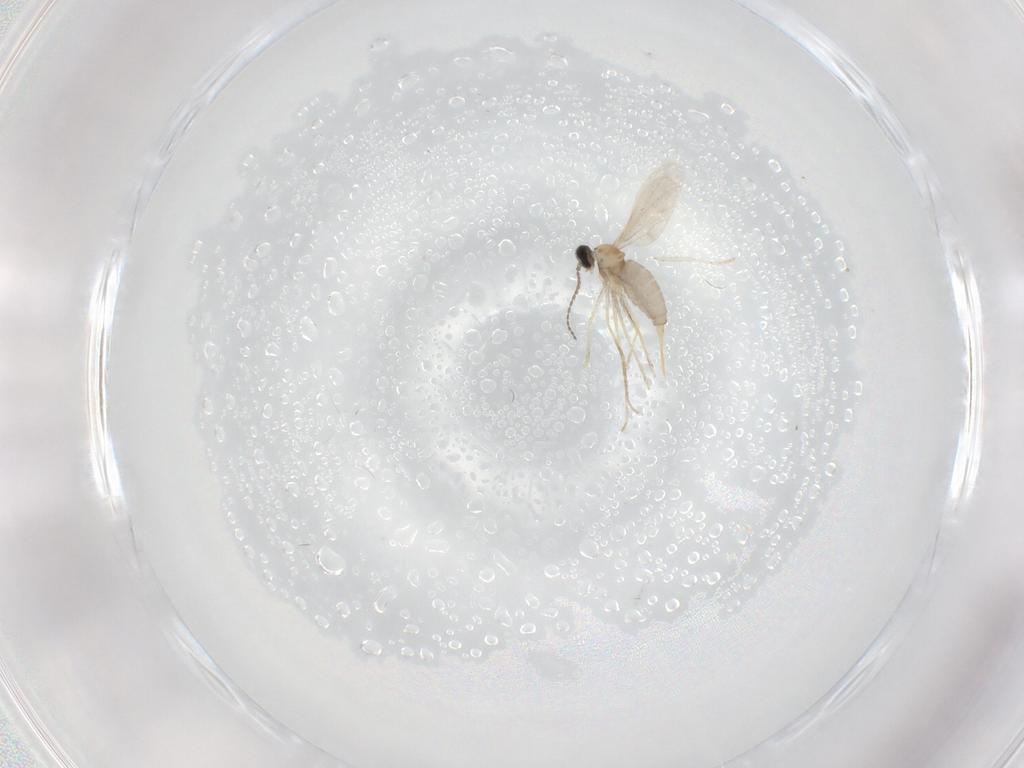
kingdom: Animalia
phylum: Arthropoda
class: Insecta
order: Diptera
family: Cecidomyiidae
